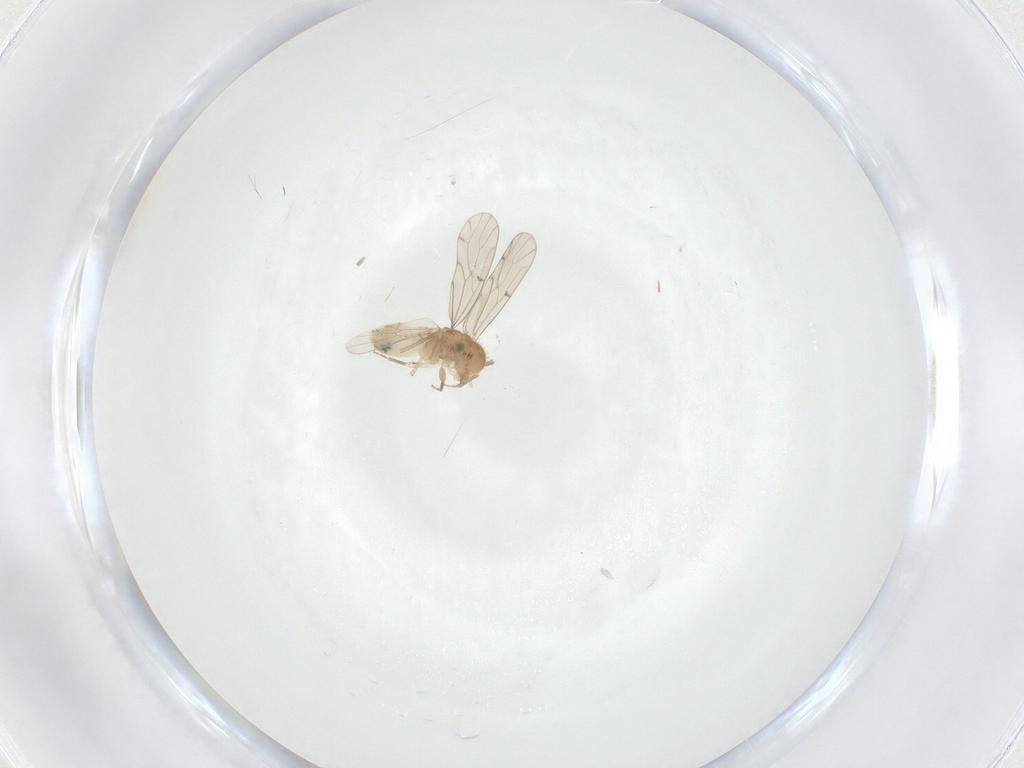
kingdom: Animalia
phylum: Arthropoda
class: Insecta
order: Psocodea
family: Ectopsocidae
